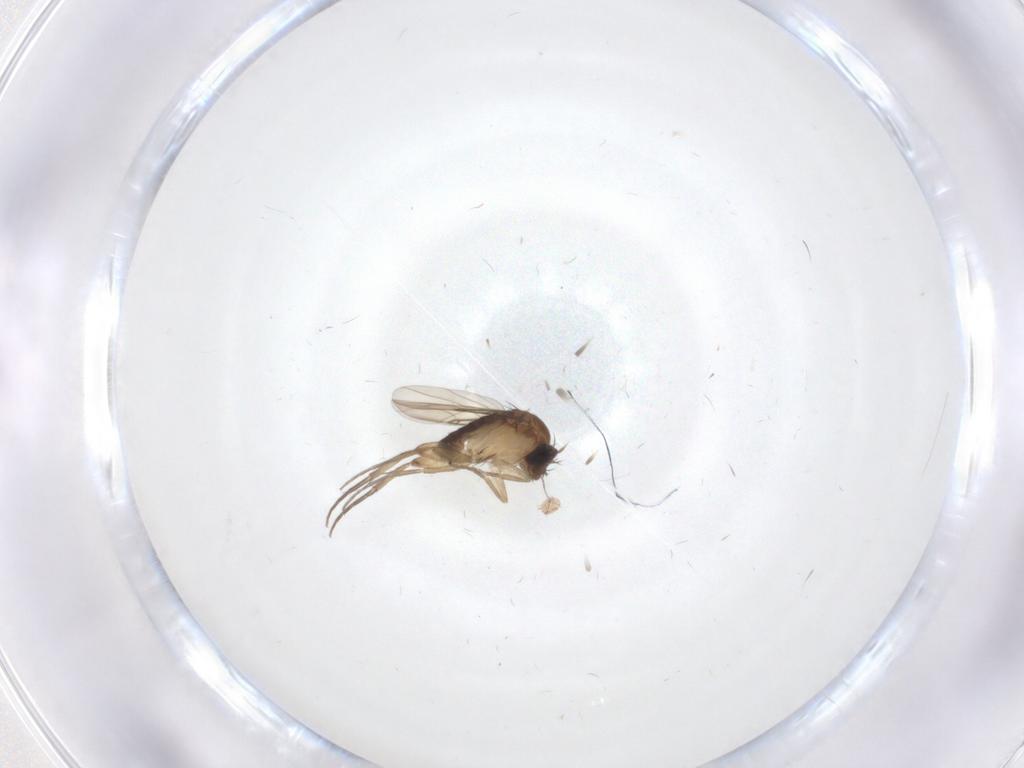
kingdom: Animalia
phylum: Arthropoda
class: Insecta
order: Diptera
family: Phoridae
